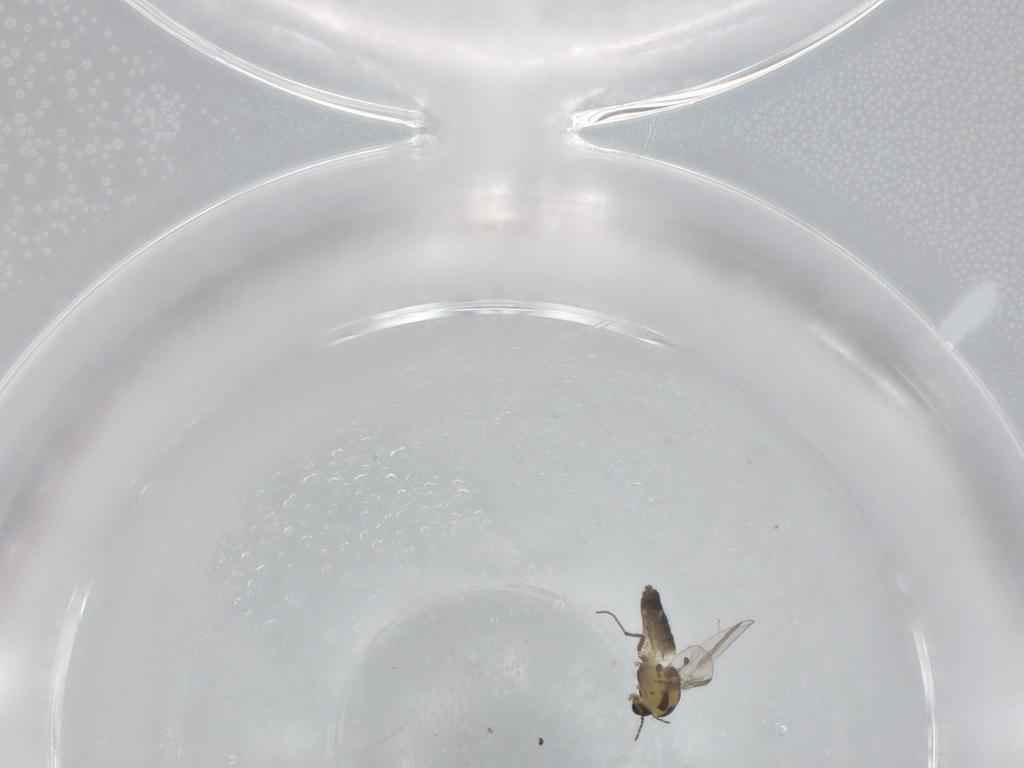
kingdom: Animalia
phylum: Arthropoda
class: Insecta
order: Diptera
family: Chironomidae
